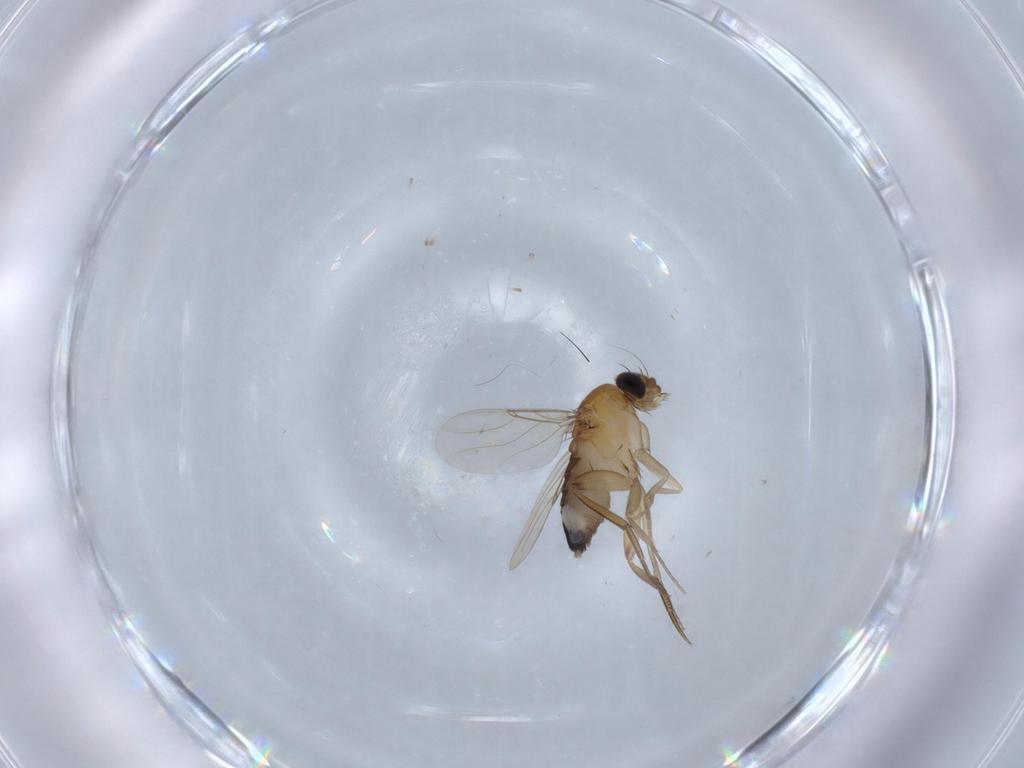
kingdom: Animalia
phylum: Arthropoda
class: Insecta
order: Diptera
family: Phoridae
